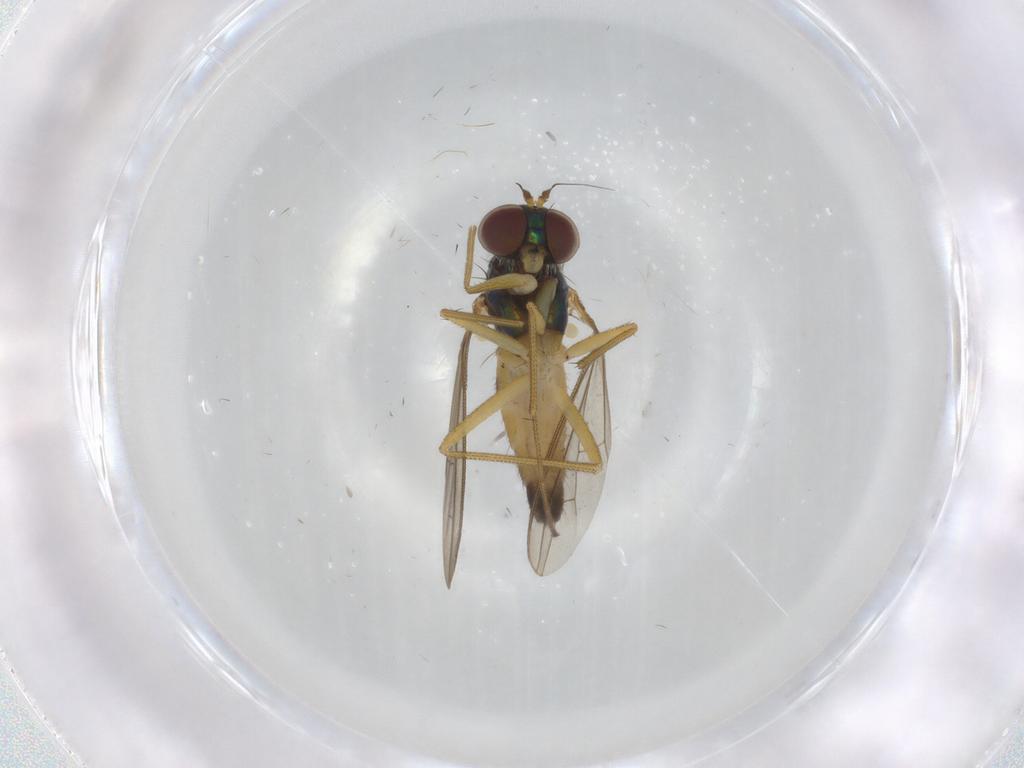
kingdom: Animalia
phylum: Arthropoda
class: Insecta
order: Diptera
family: Dolichopodidae
